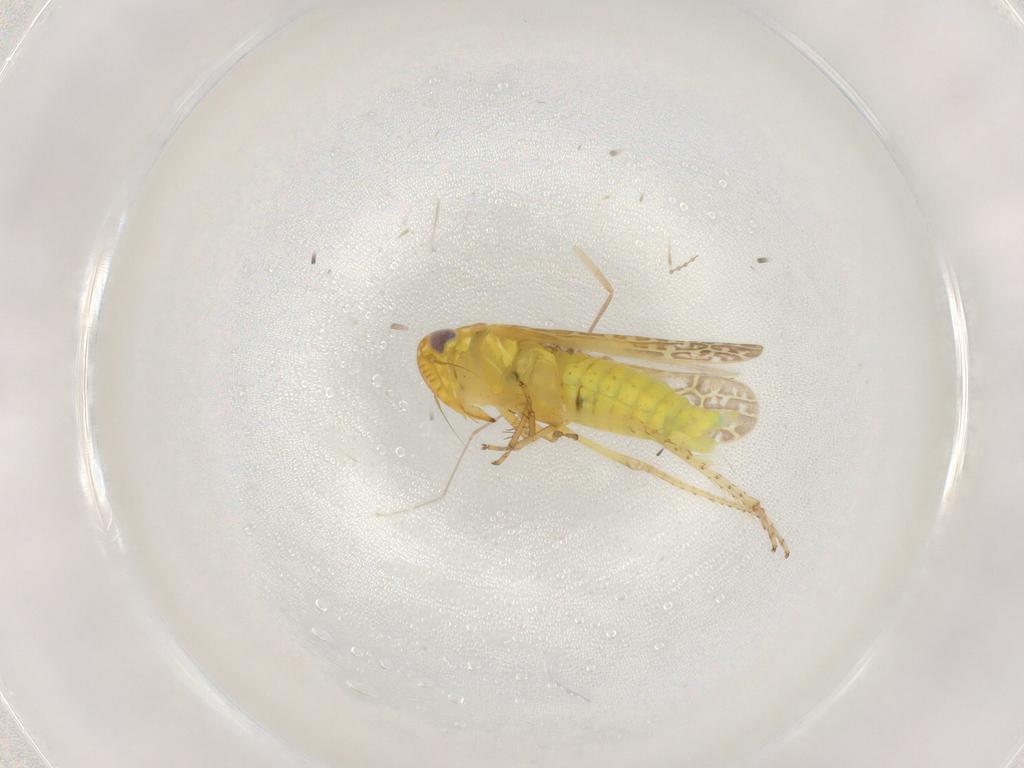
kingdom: Animalia
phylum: Arthropoda
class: Insecta
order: Hemiptera
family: Cicadellidae
